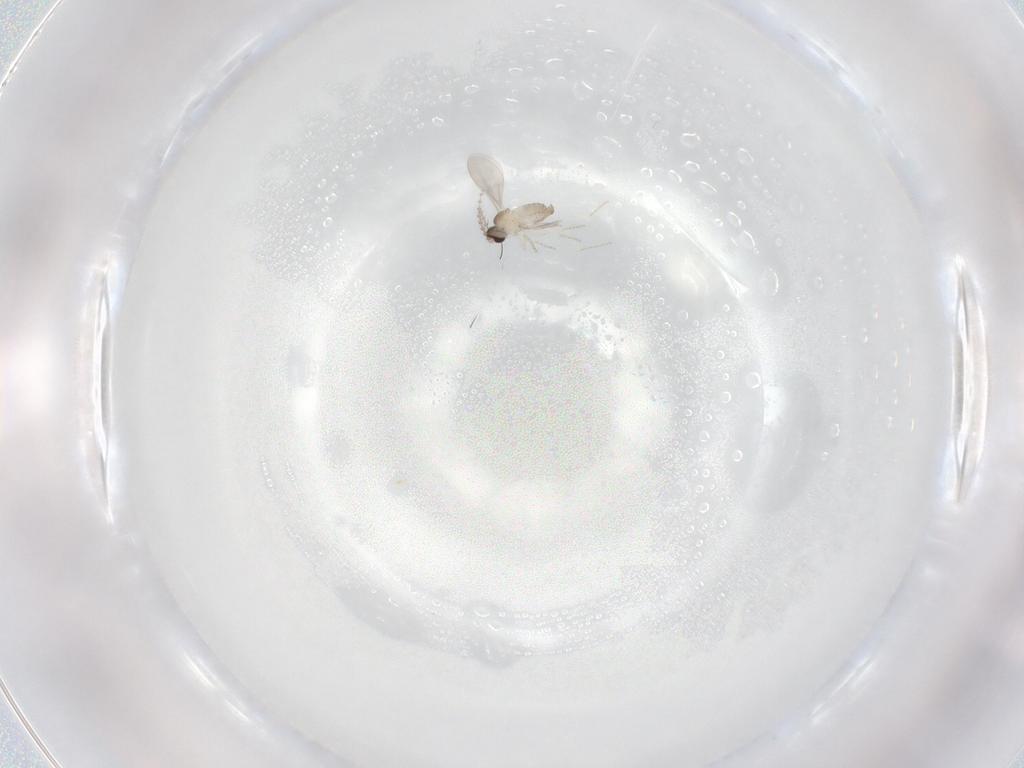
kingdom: Animalia
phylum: Arthropoda
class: Insecta
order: Diptera
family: Cecidomyiidae
